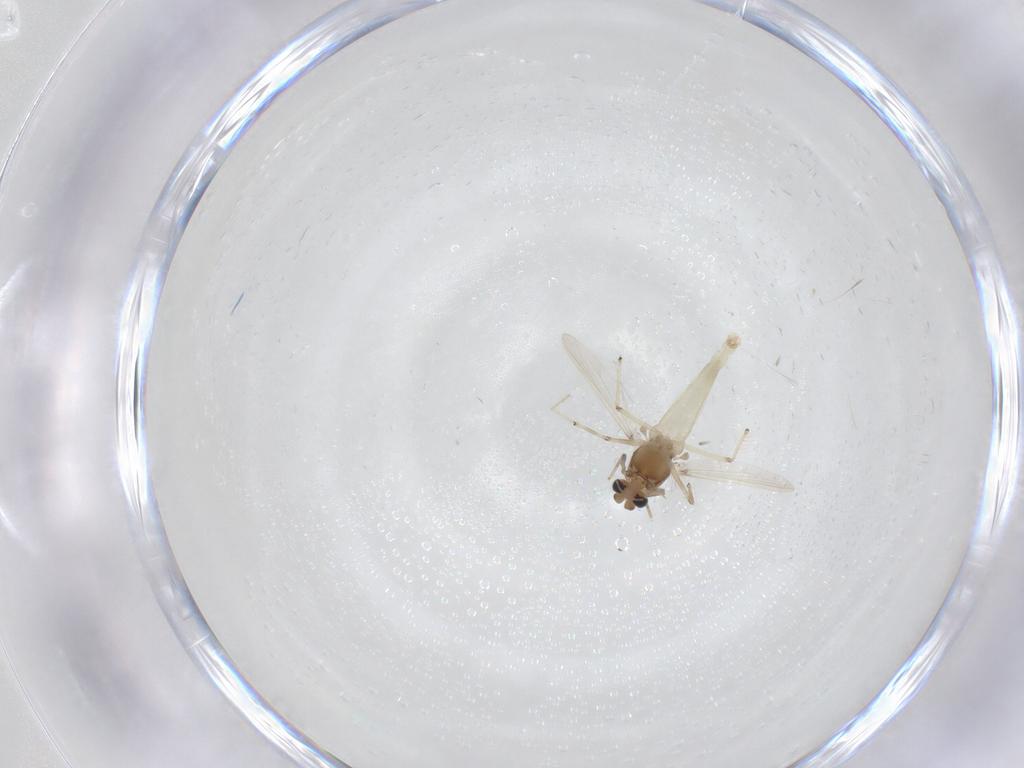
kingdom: Animalia
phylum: Arthropoda
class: Insecta
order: Diptera
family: Chironomidae
